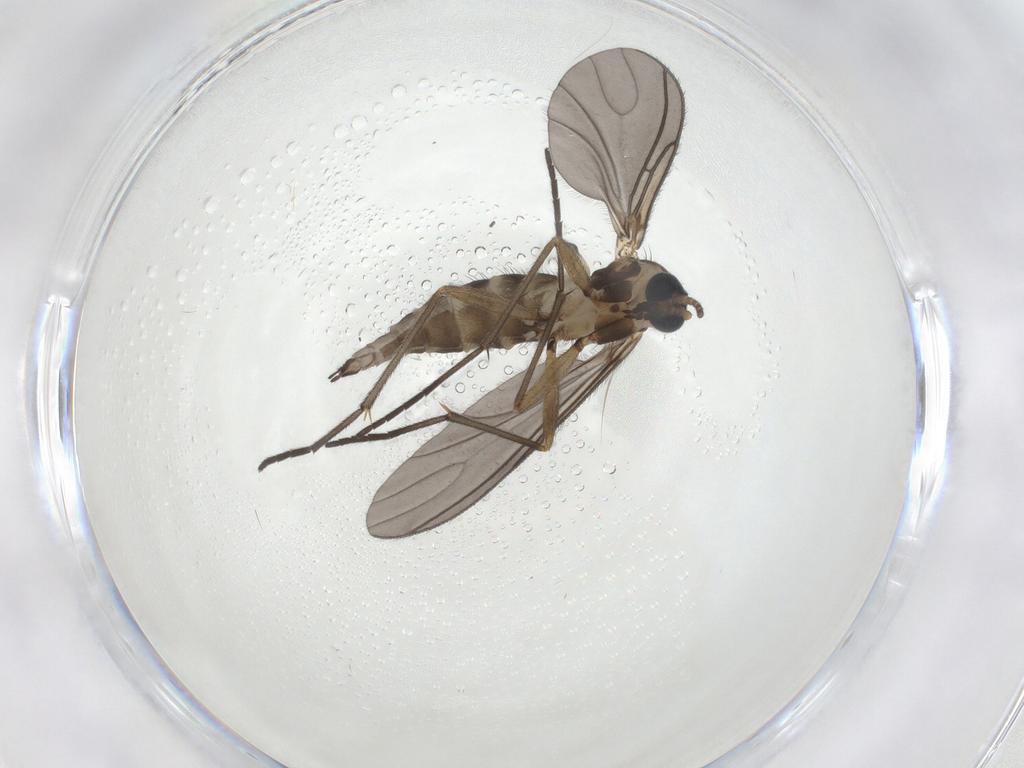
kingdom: Animalia
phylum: Arthropoda
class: Insecta
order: Diptera
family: Sciaridae
